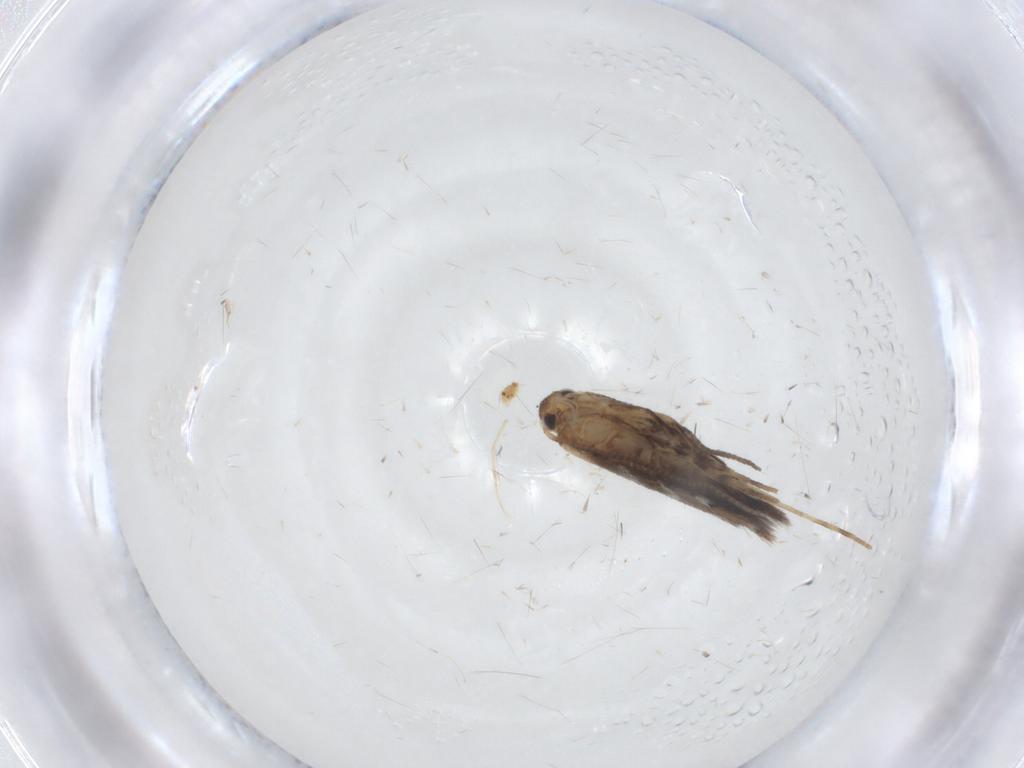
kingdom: Animalia
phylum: Arthropoda
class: Insecta
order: Lepidoptera
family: Gracillariidae
